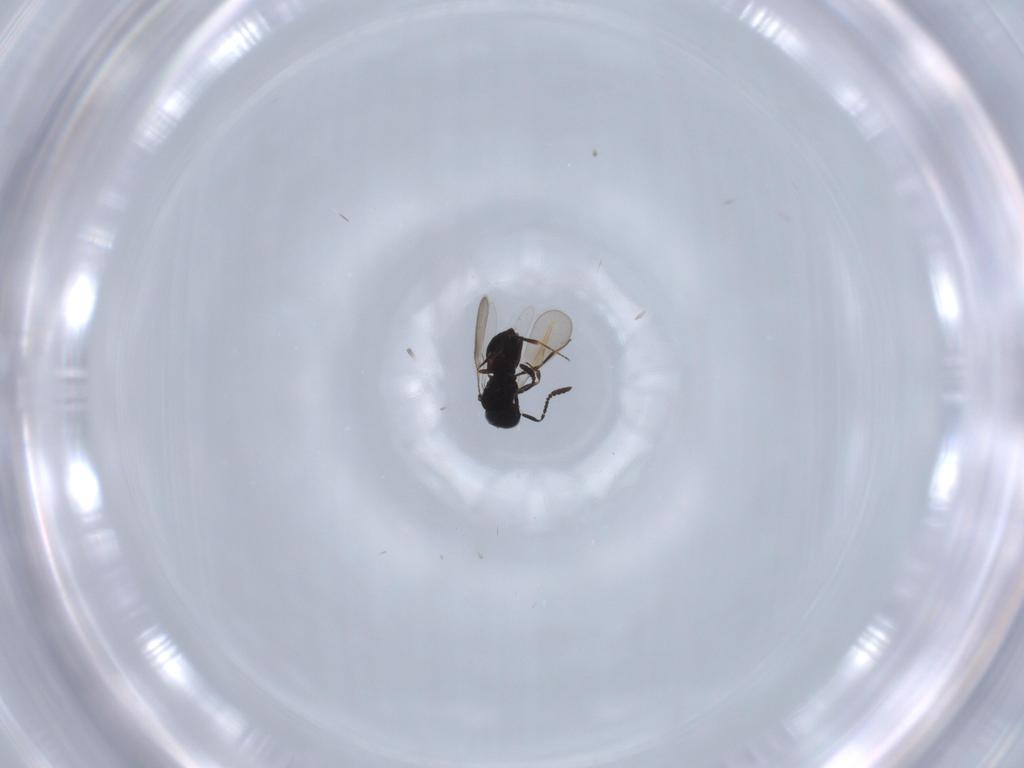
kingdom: Animalia
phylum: Arthropoda
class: Insecta
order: Hymenoptera
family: Scelionidae
